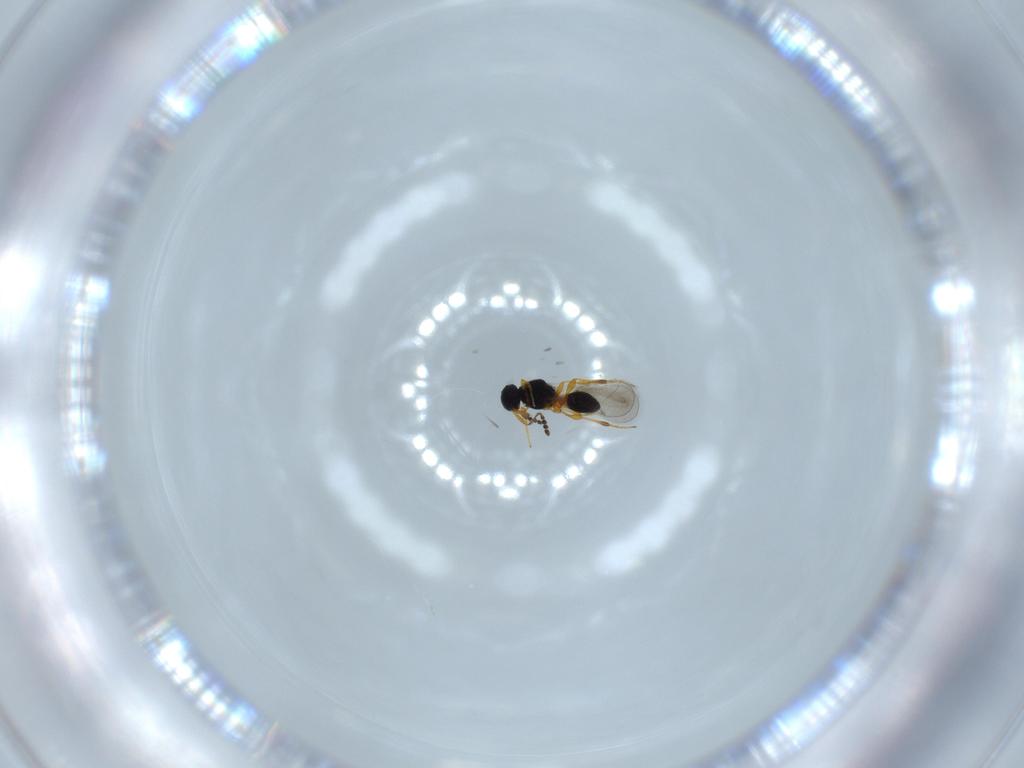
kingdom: Animalia
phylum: Arthropoda
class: Insecta
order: Hymenoptera
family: Platygastridae
